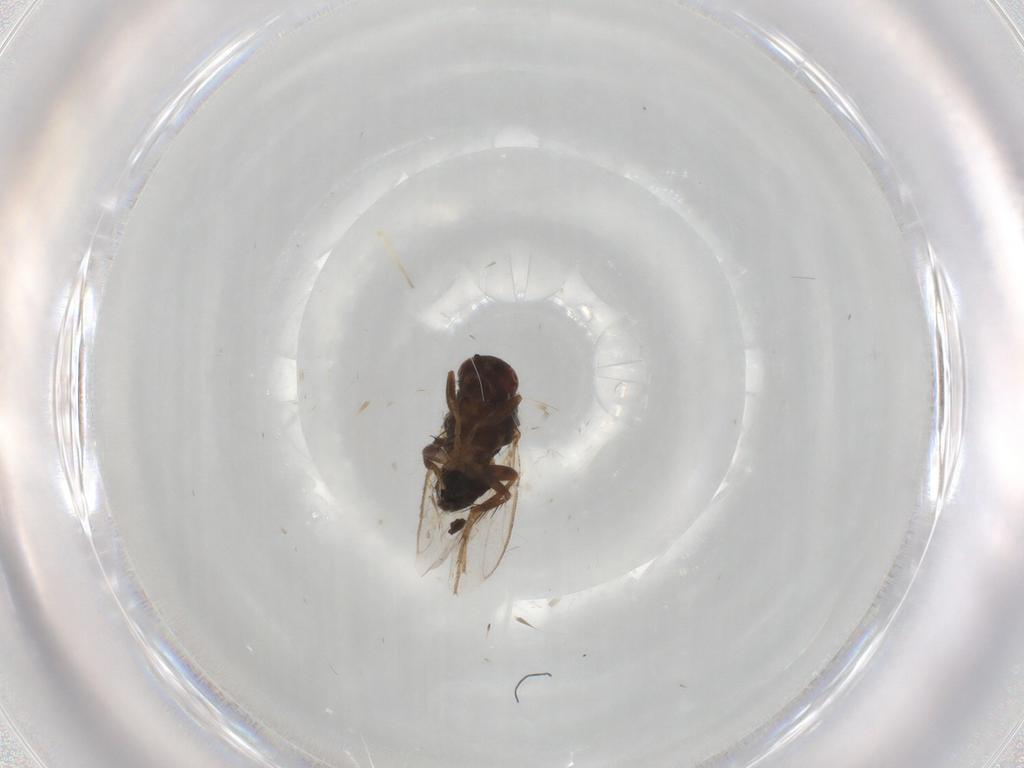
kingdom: Animalia
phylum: Arthropoda
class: Insecta
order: Diptera
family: Sphaeroceridae
